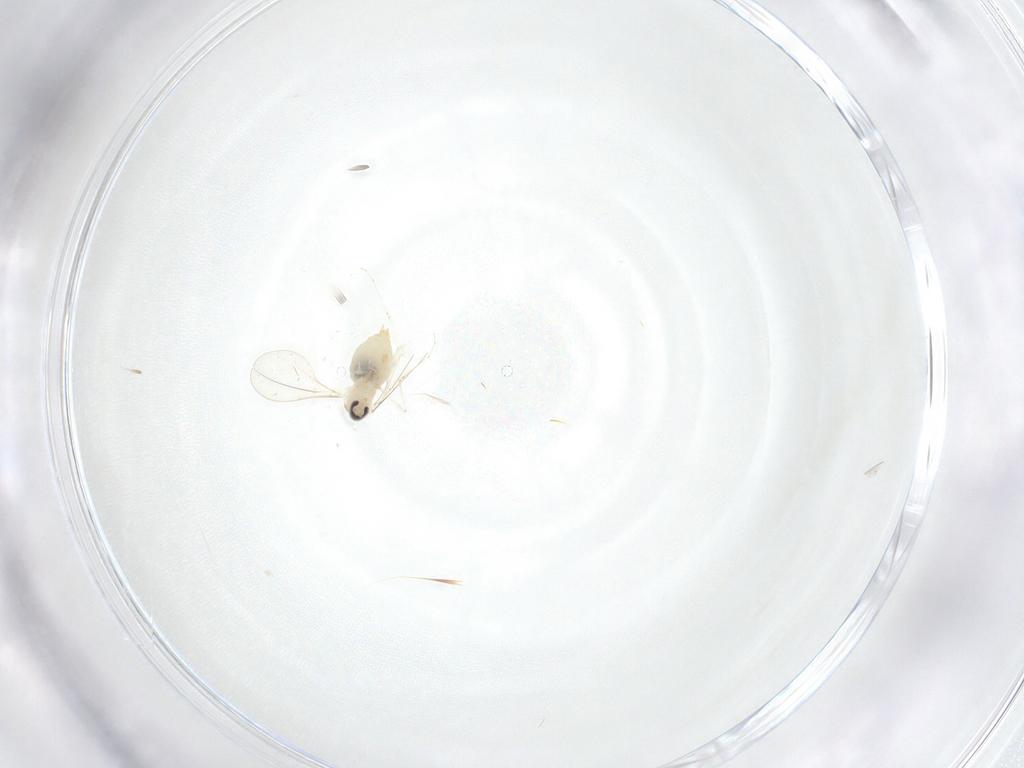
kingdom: Animalia
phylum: Arthropoda
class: Insecta
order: Diptera
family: Cecidomyiidae
